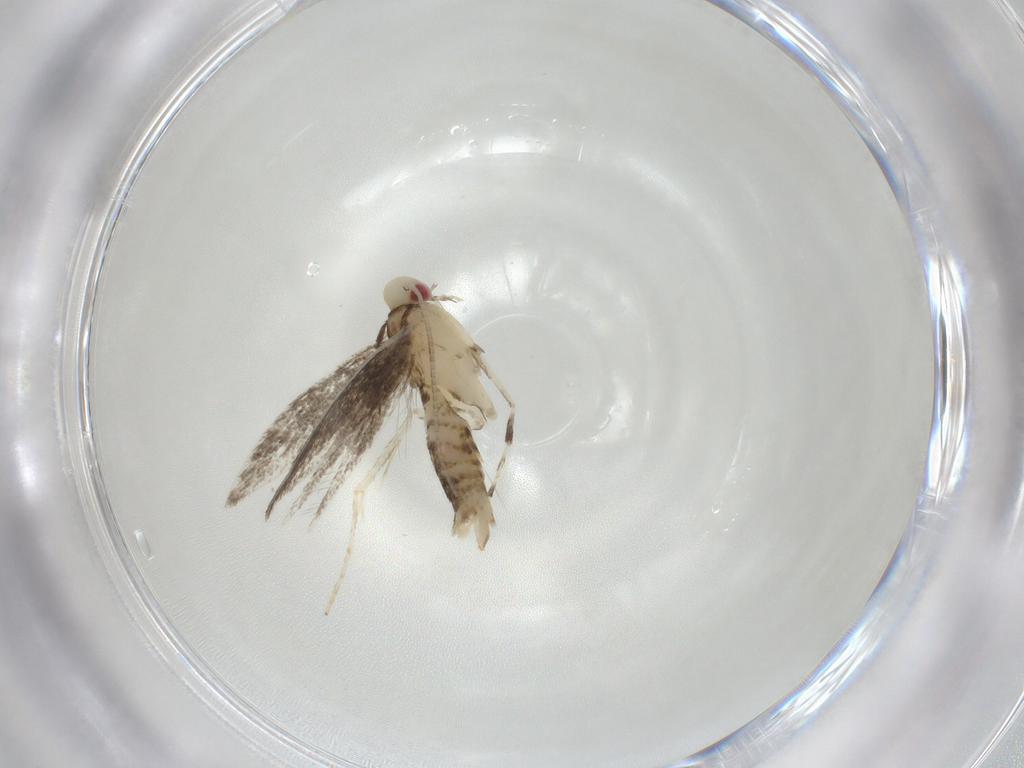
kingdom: Animalia
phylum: Arthropoda
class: Insecta
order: Lepidoptera
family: Gracillariidae
